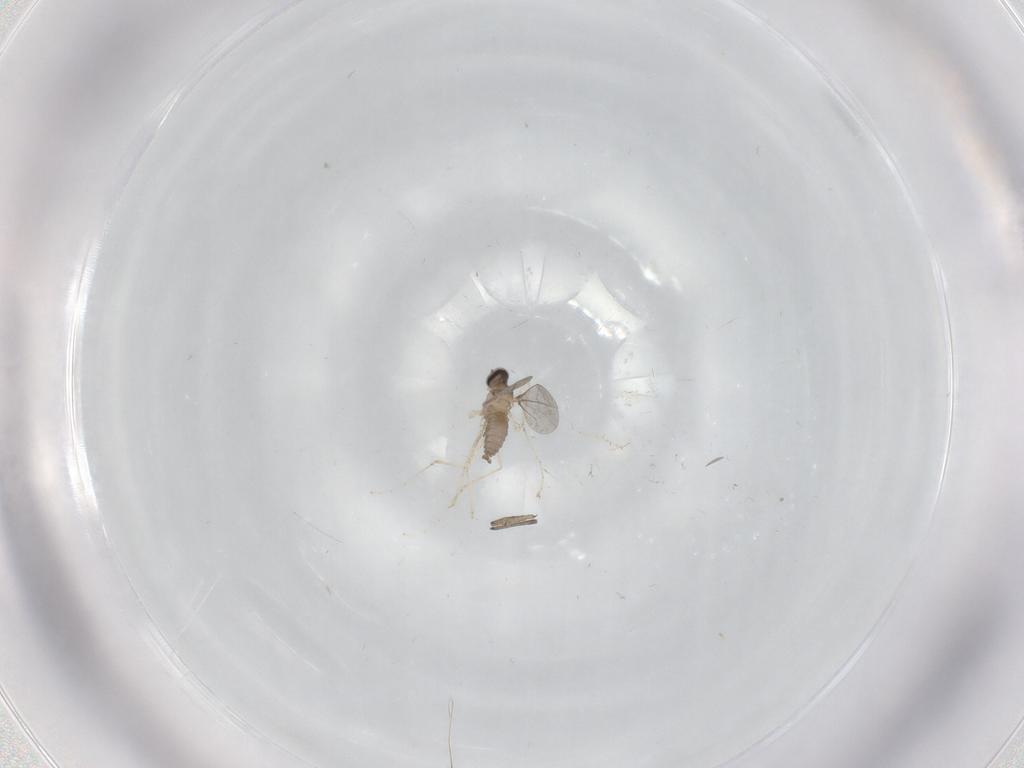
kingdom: Animalia
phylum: Arthropoda
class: Insecta
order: Diptera
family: Cecidomyiidae
